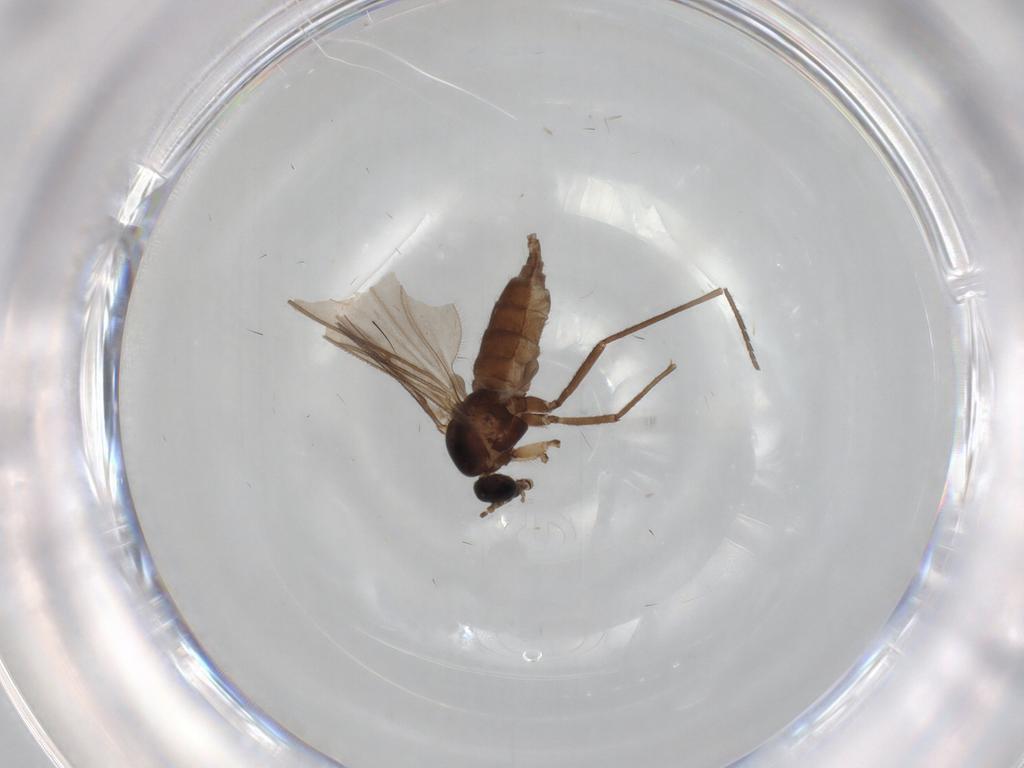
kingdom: Animalia
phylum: Arthropoda
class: Insecta
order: Diptera
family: Sciaridae
